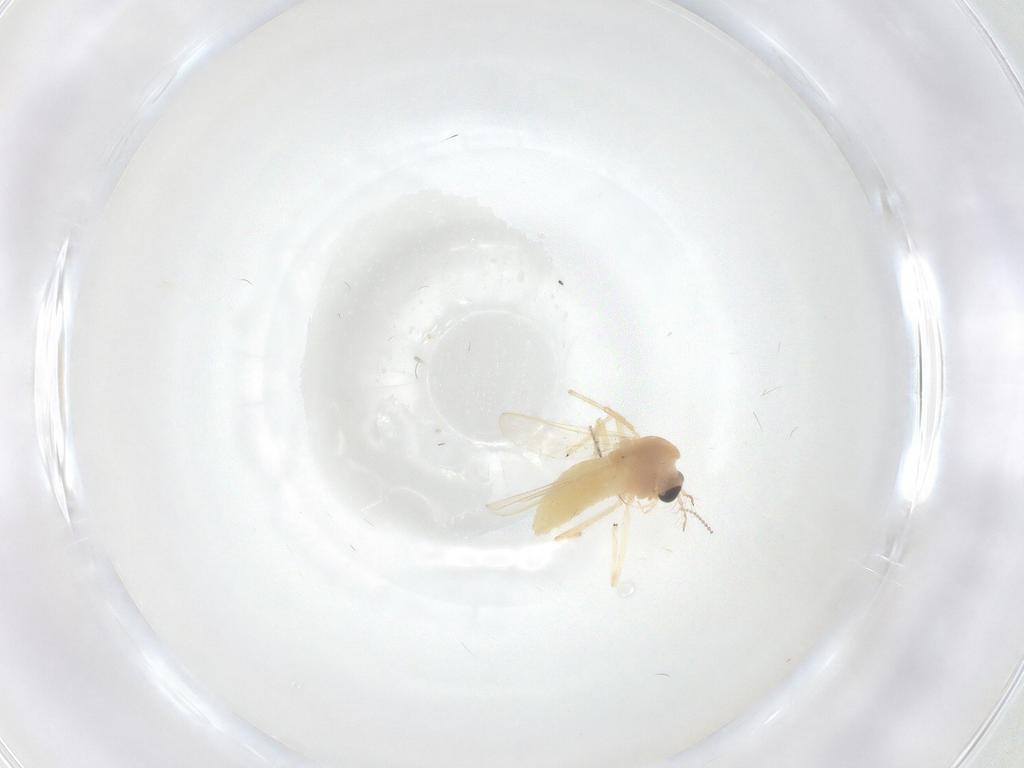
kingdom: Animalia
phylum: Arthropoda
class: Insecta
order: Diptera
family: Chironomidae
